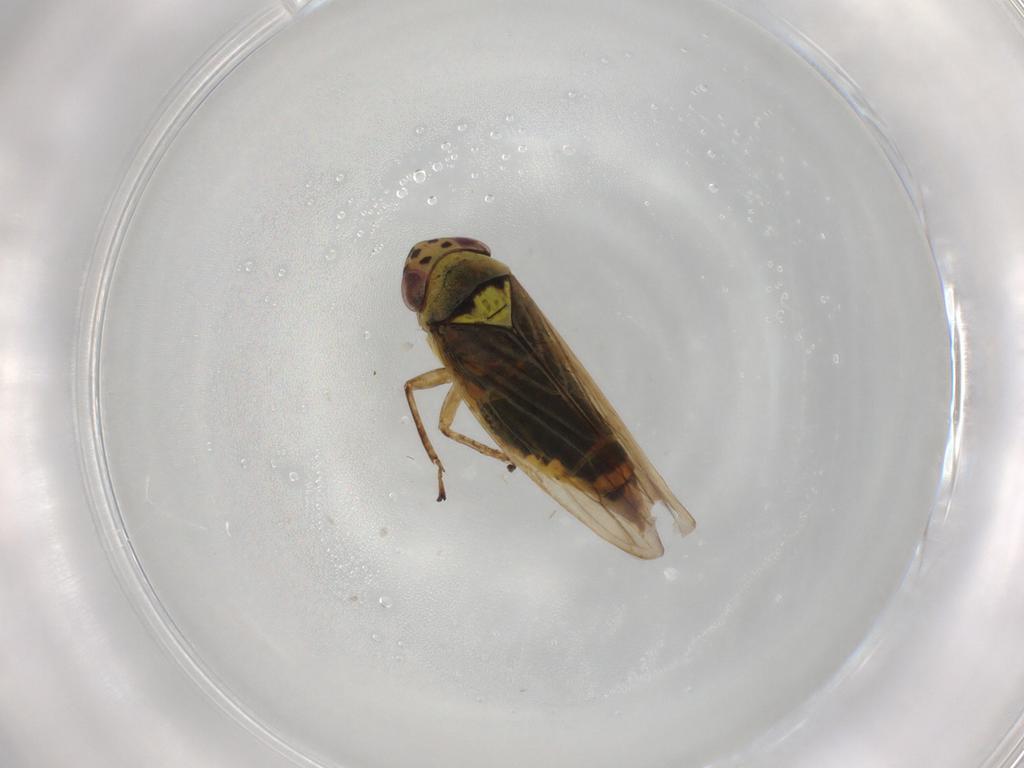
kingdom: Animalia
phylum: Arthropoda
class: Insecta
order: Hemiptera
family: Cicadellidae
